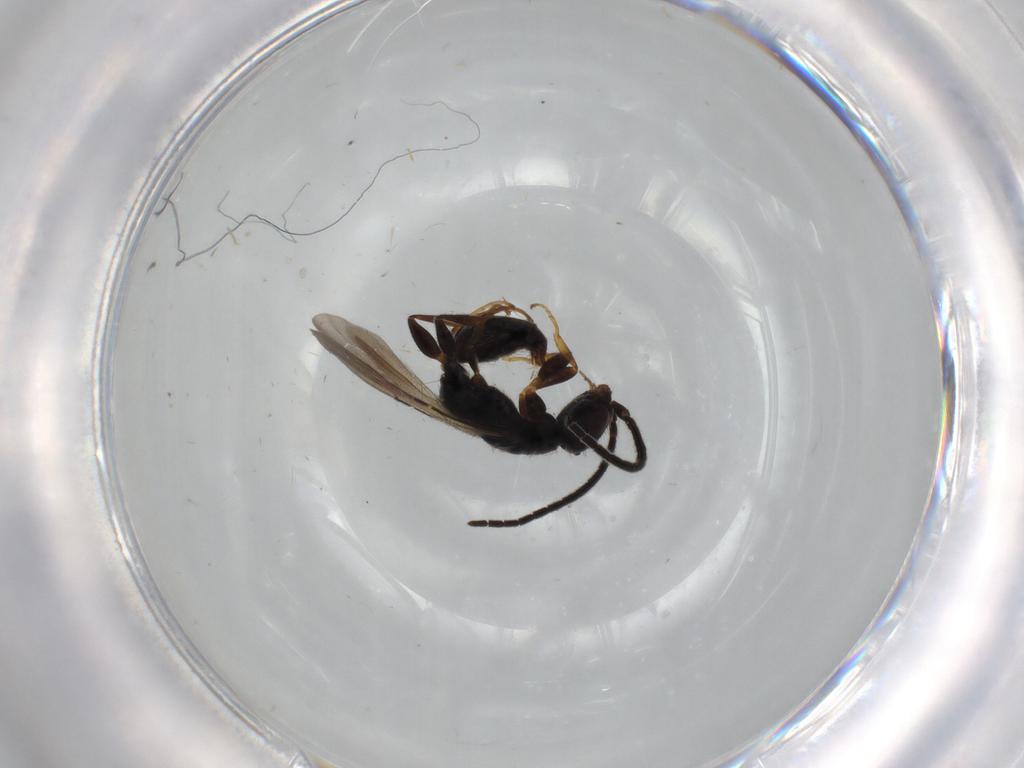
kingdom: Animalia
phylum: Arthropoda
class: Insecta
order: Hymenoptera
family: Bethylidae
